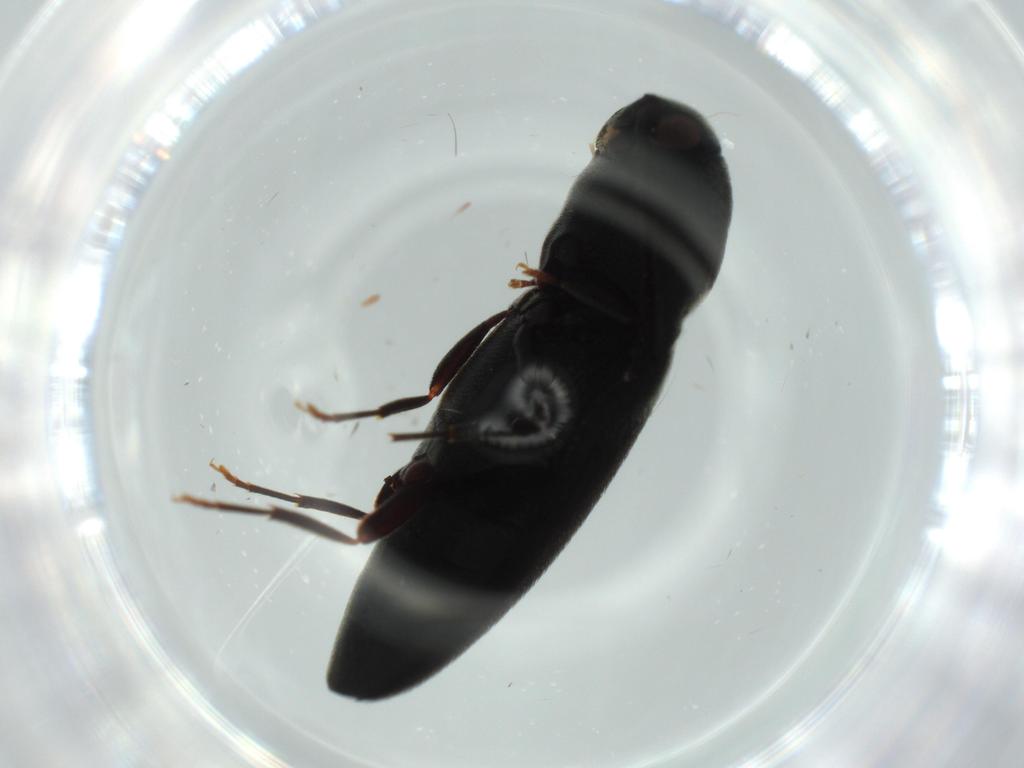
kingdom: Animalia
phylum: Arthropoda
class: Insecta
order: Coleoptera
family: Eucnemidae
